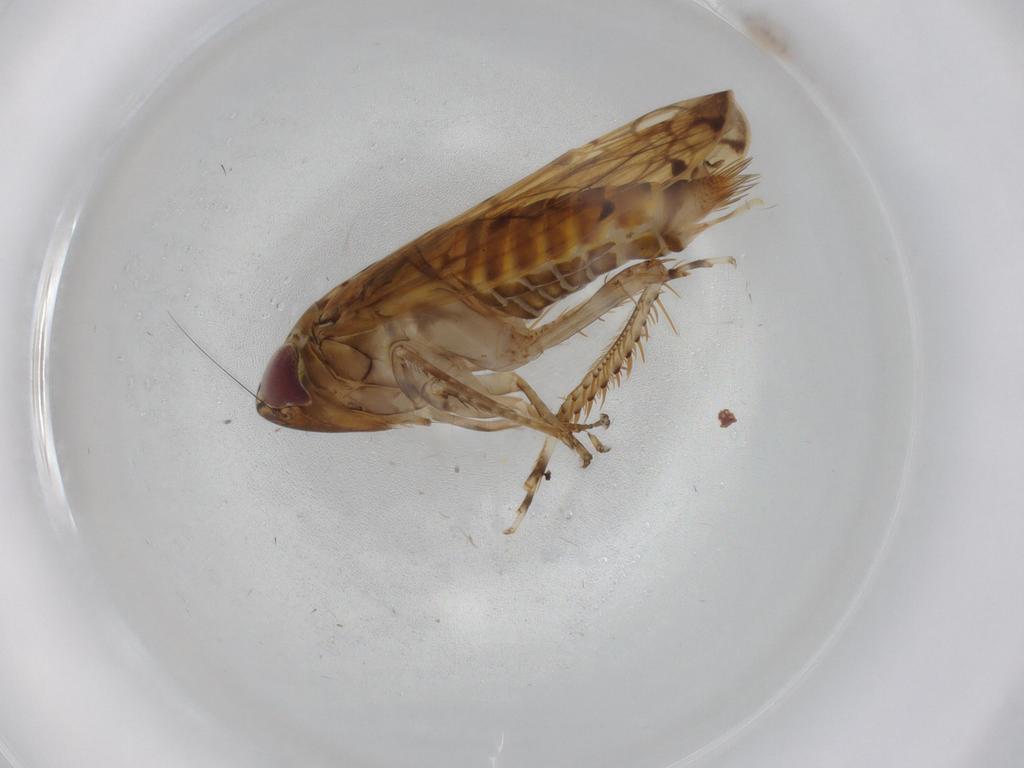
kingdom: Animalia
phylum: Arthropoda
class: Insecta
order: Hemiptera
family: Cicadellidae
